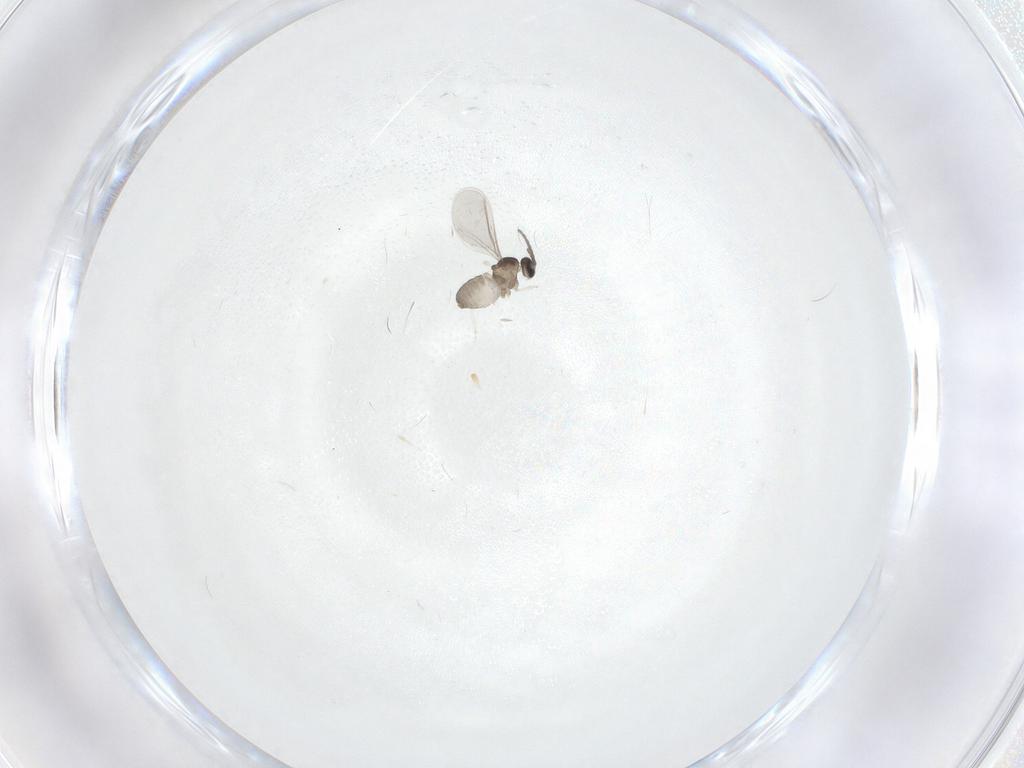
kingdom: Animalia
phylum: Arthropoda
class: Insecta
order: Diptera
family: Cecidomyiidae
